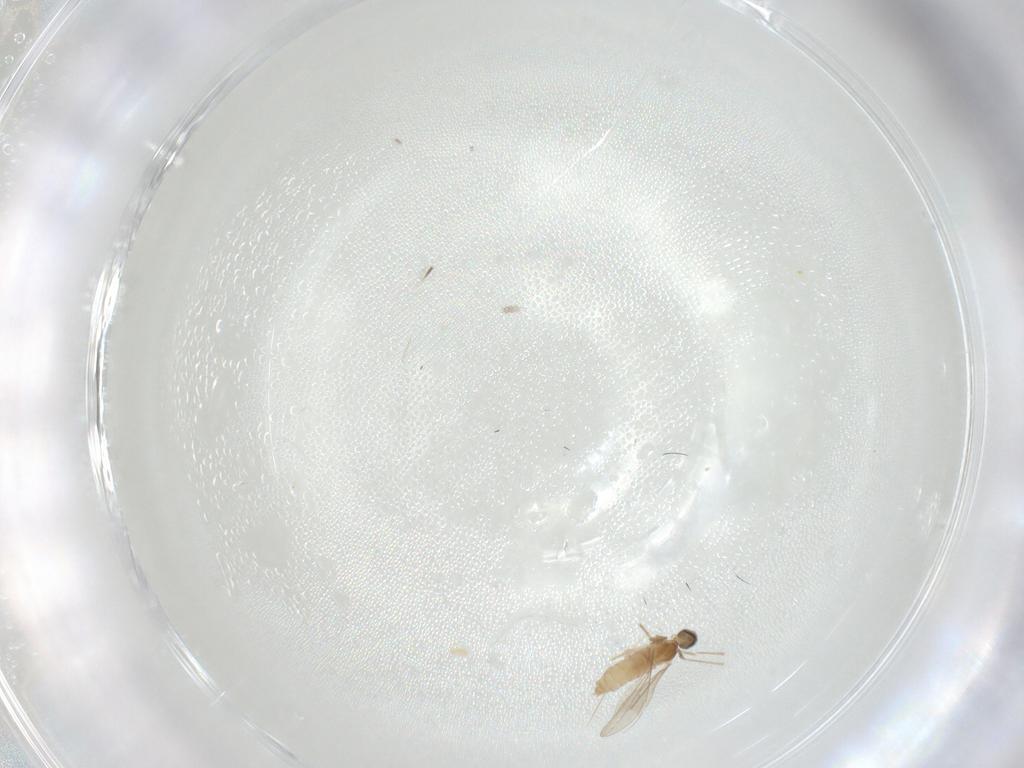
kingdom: Animalia
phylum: Arthropoda
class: Insecta
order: Diptera
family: Cecidomyiidae
